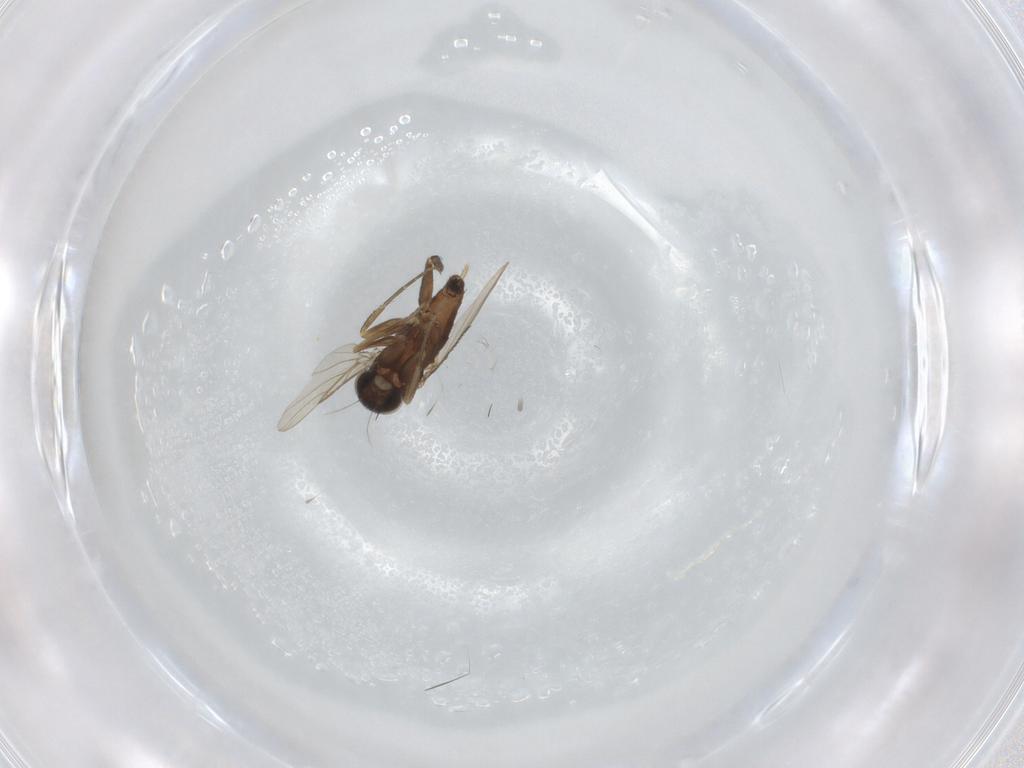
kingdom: Animalia
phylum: Arthropoda
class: Insecta
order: Diptera
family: Phoridae
